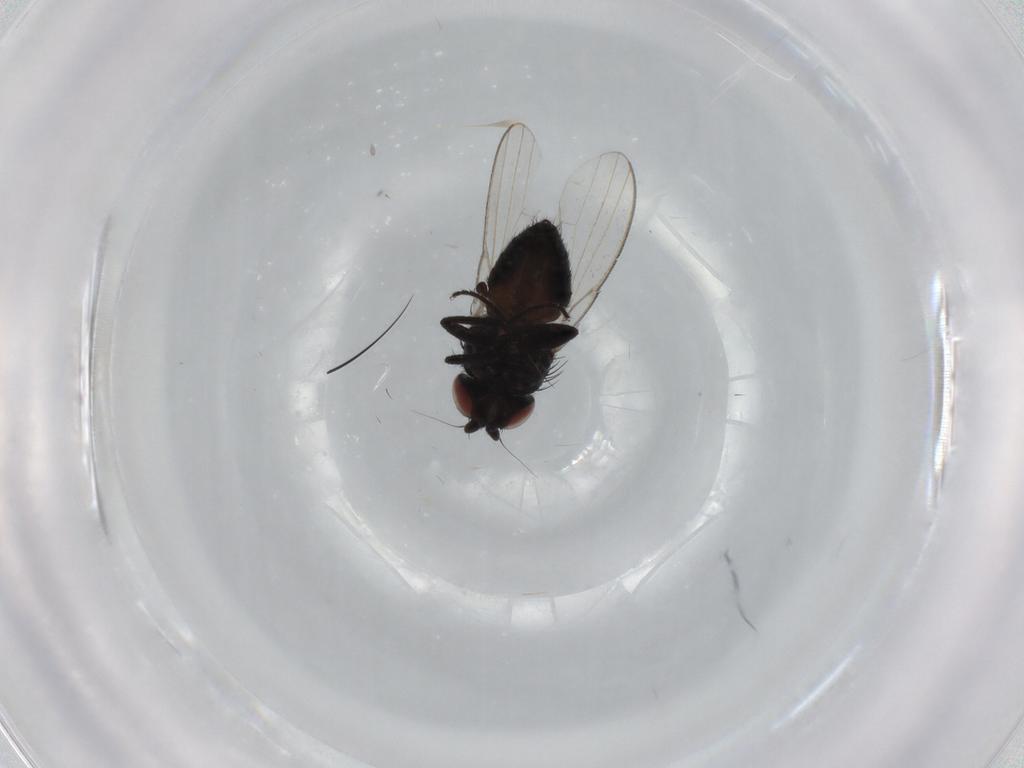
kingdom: Animalia
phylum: Arthropoda
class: Insecta
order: Diptera
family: Milichiidae
